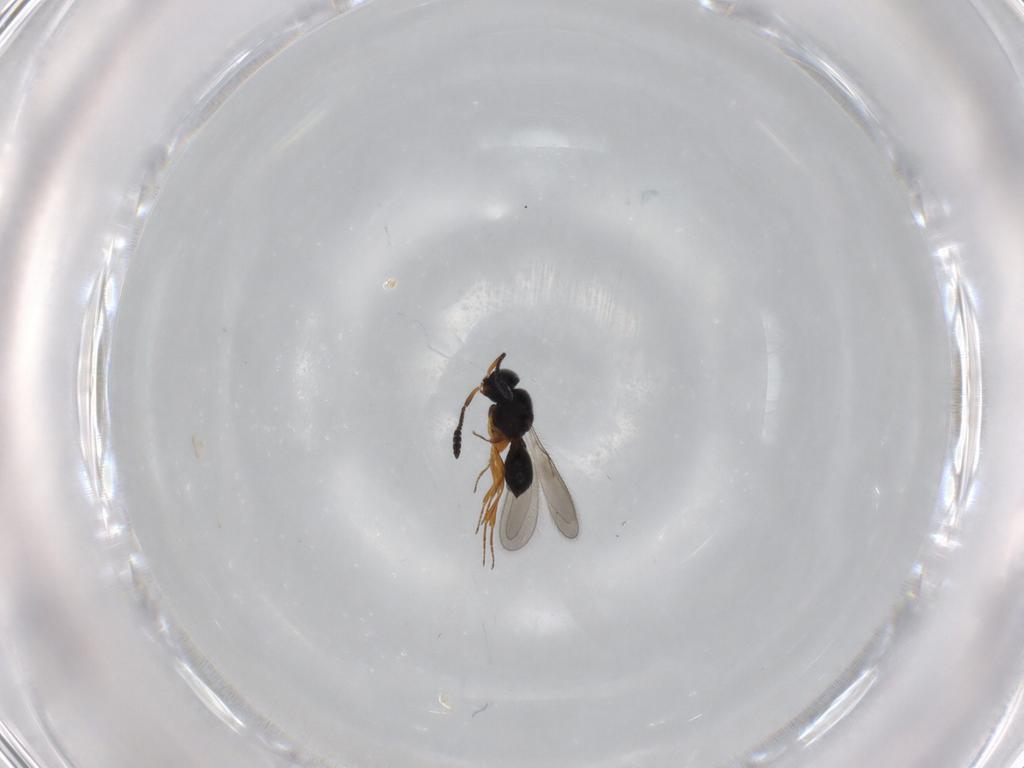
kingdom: Animalia
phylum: Arthropoda
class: Insecta
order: Hymenoptera
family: Scelionidae
